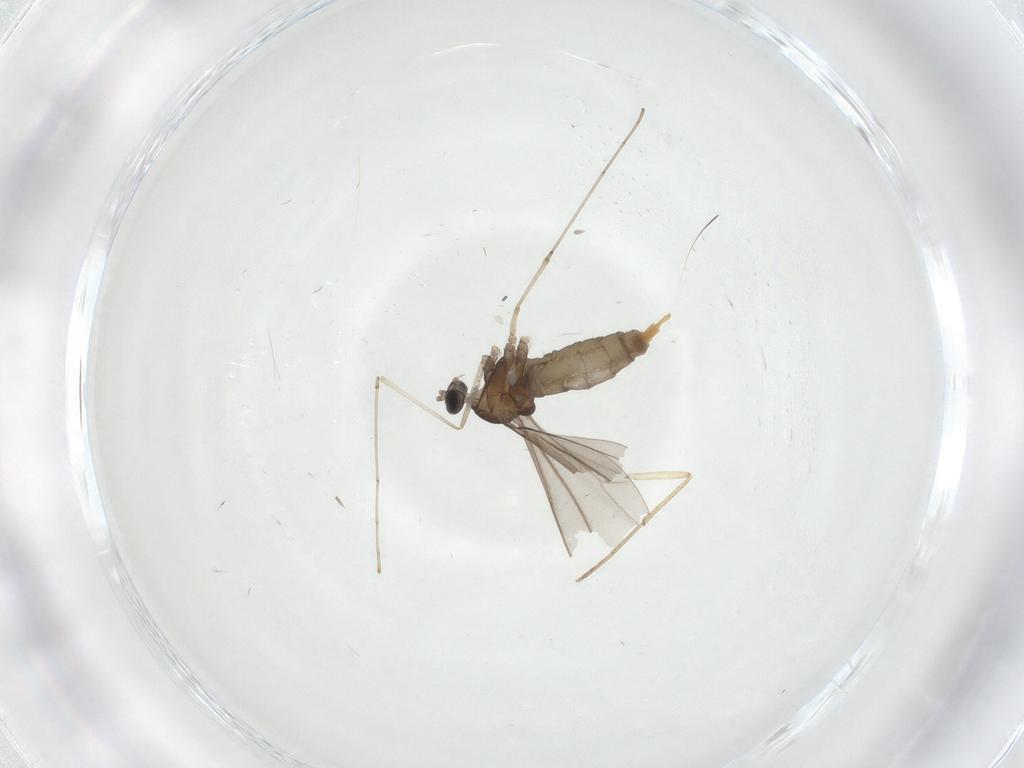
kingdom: Animalia
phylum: Arthropoda
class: Insecta
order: Diptera
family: Cecidomyiidae
